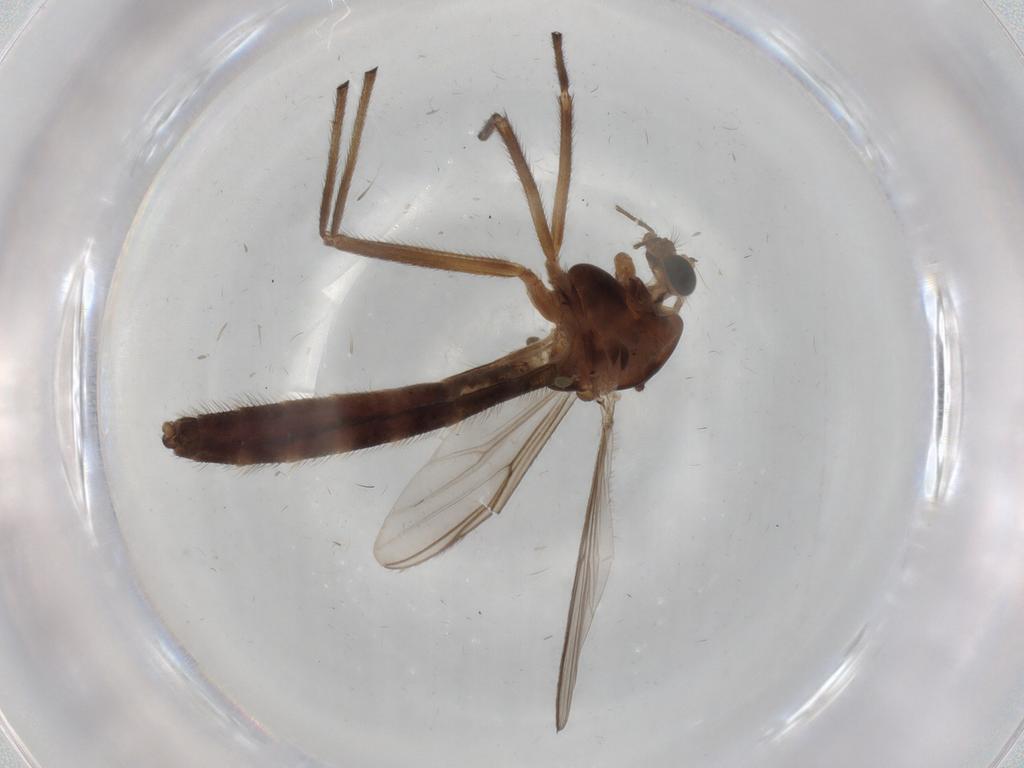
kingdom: Animalia
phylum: Arthropoda
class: Insecta
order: Diptera
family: Chironomidae
